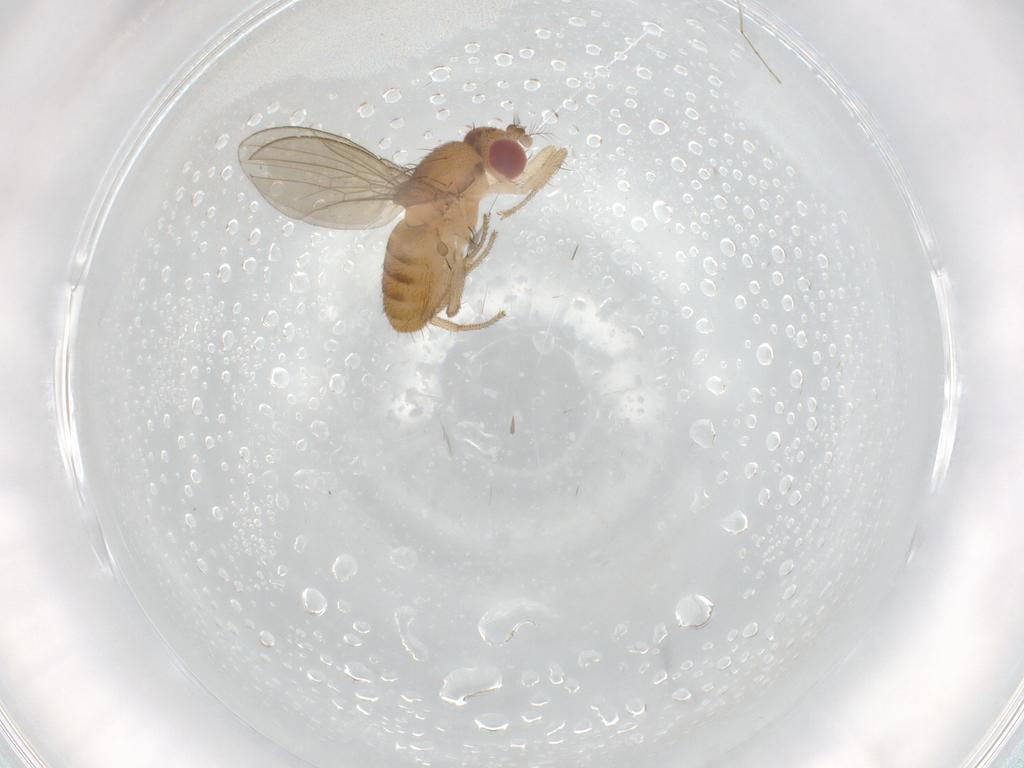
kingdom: Animalia
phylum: Arthropoda
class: Insecta
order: Diptera
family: Drosophilidae
